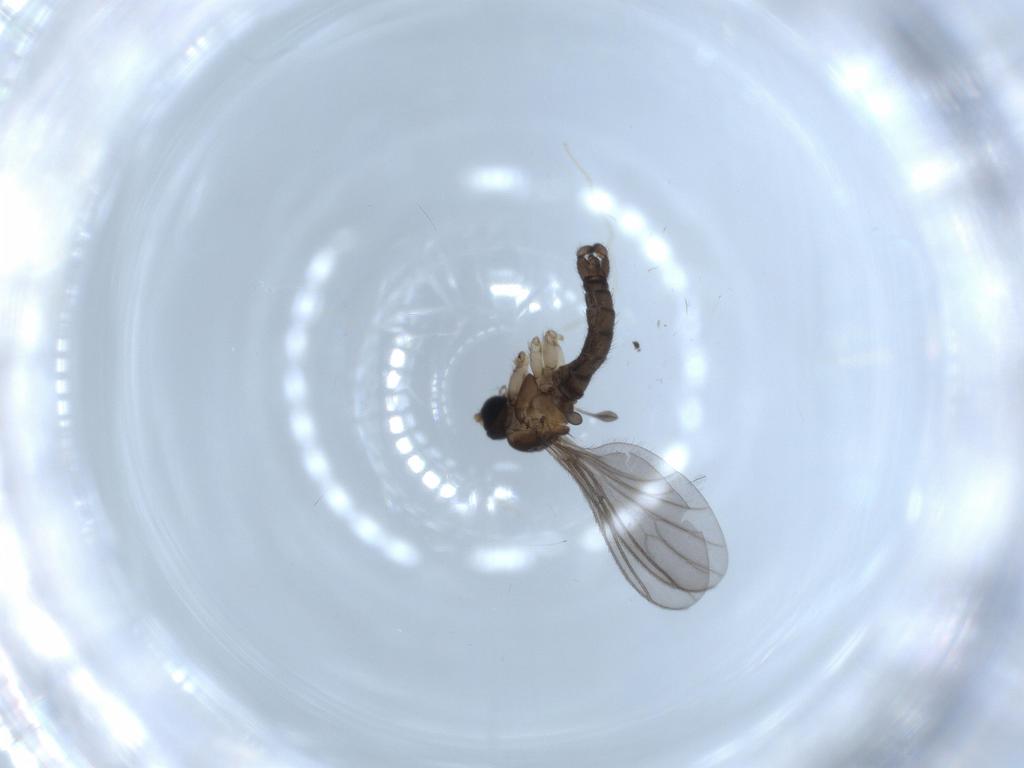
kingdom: Animalia
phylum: Arthropoda
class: Insecta
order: Diptera
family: Sciaridae
